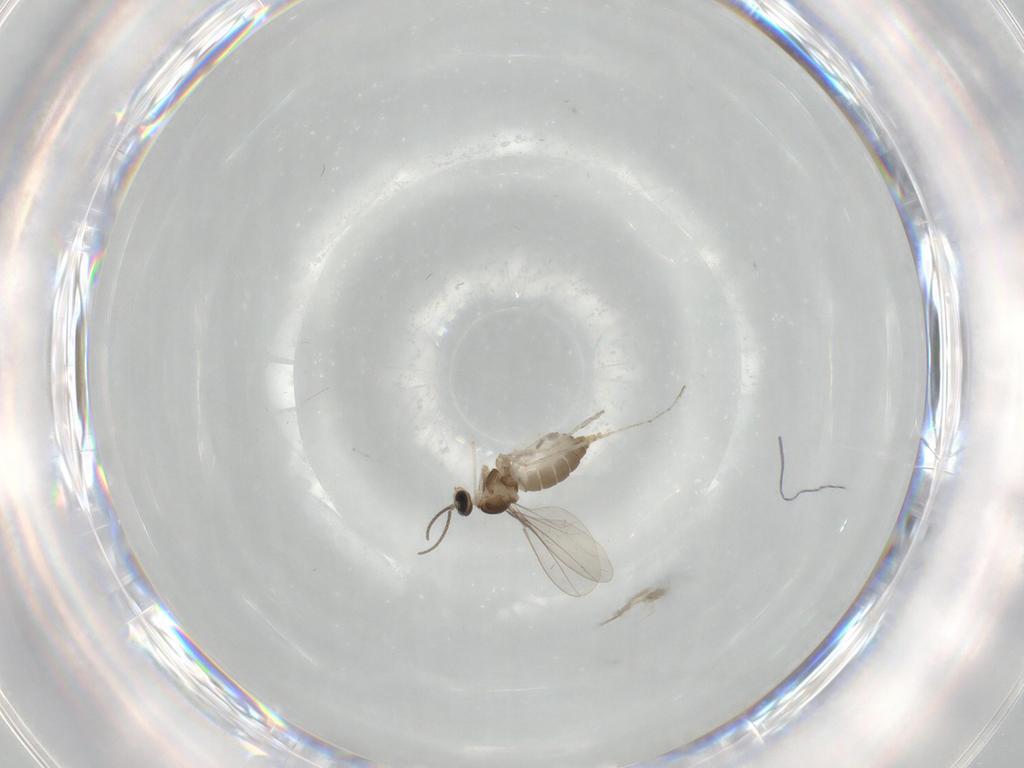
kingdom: Animalia
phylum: Arthropoda
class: Insecta
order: Diptera
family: Cecidomyiidae
